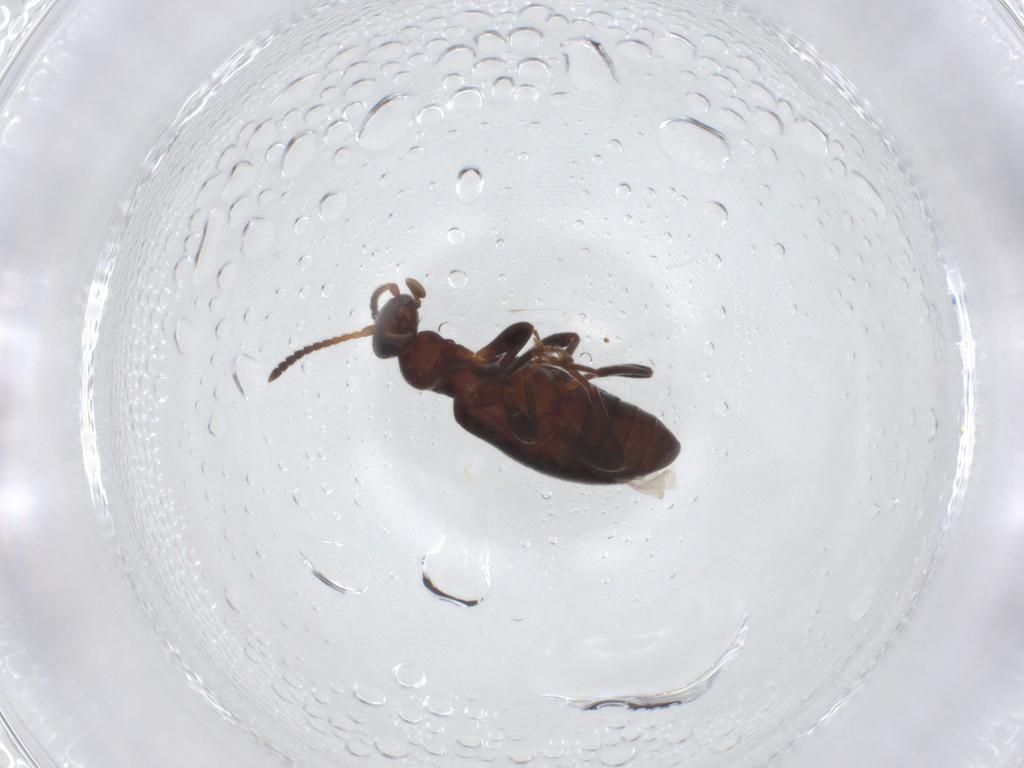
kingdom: Animalia
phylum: Arthropoda
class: Insecta
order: Coleoptera
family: Anthicidae
